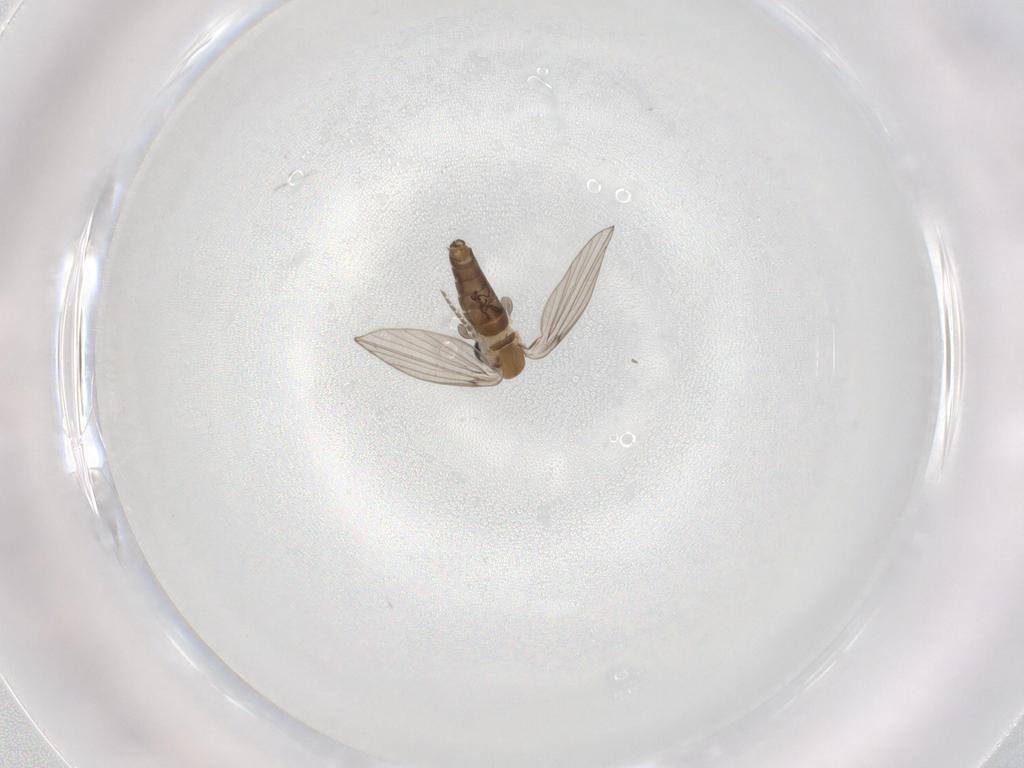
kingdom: Animalia
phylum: Arthropoda
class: Insecta
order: Diptera
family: Psychodidae
